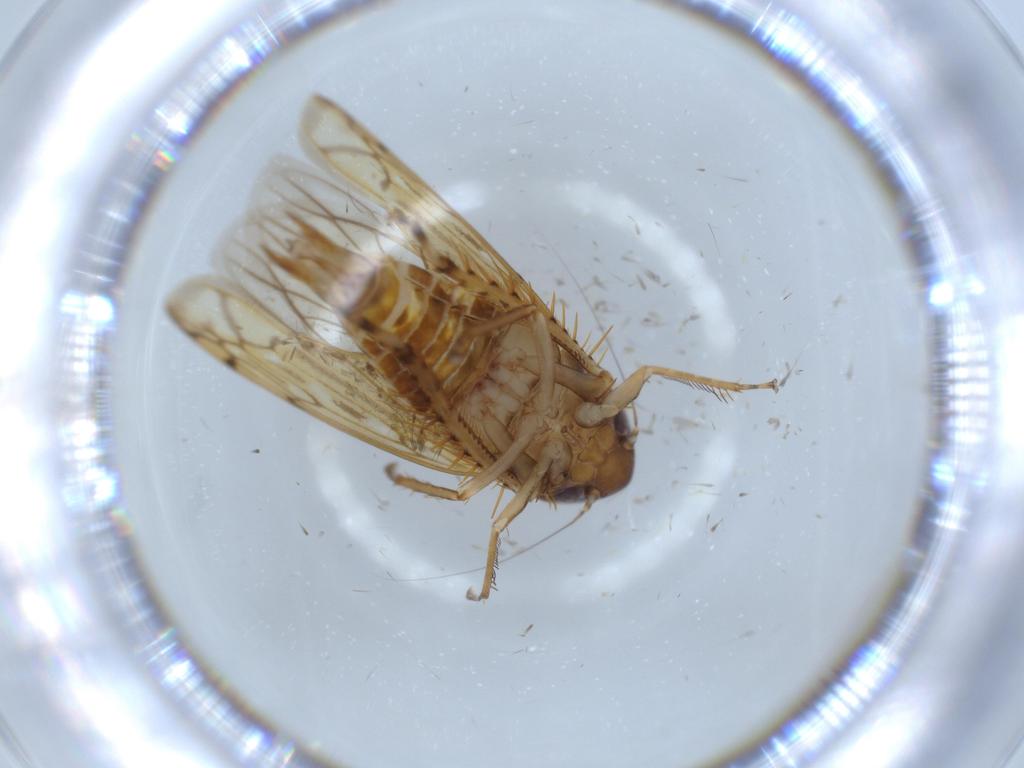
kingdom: Animalia
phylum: Arthropoda
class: Insecta
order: Hemiptera
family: Cicadellidae
